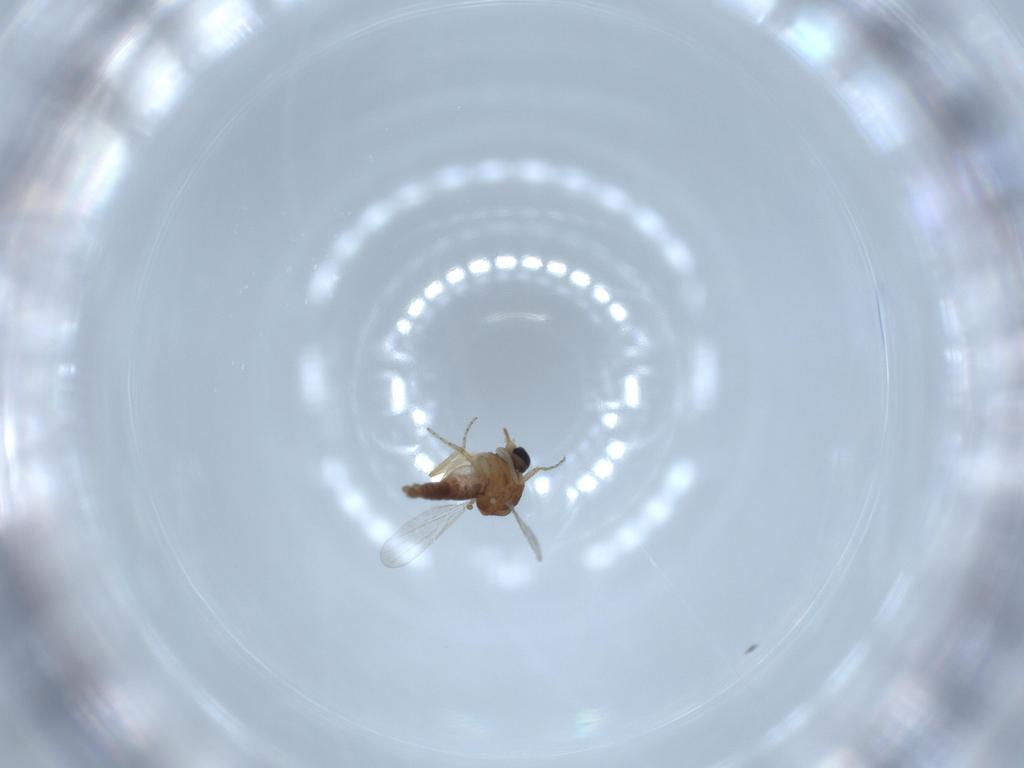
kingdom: Animalia
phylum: Arthropoda
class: Insecta
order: Diptera
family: Ceratopogonidae
